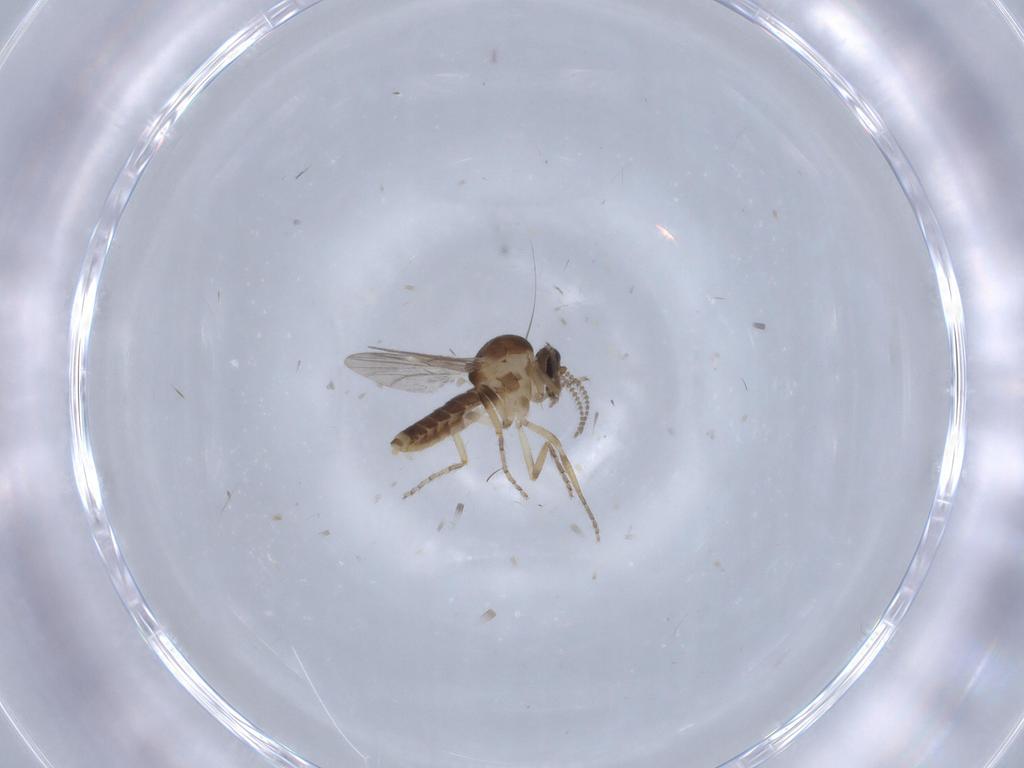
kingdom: Animalia
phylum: Arthropoda
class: Insecta
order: Diptera
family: Ceratopogonidae
